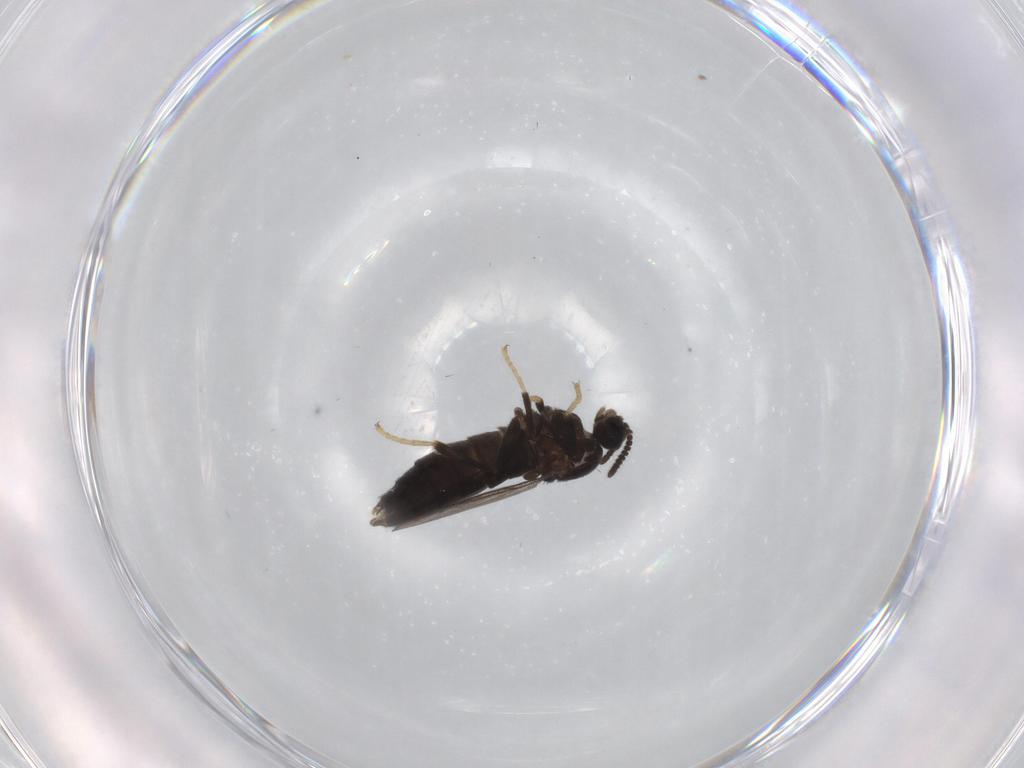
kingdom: Animalia
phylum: Arthropoda
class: Insecta
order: Diptera
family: Scatopsidae
